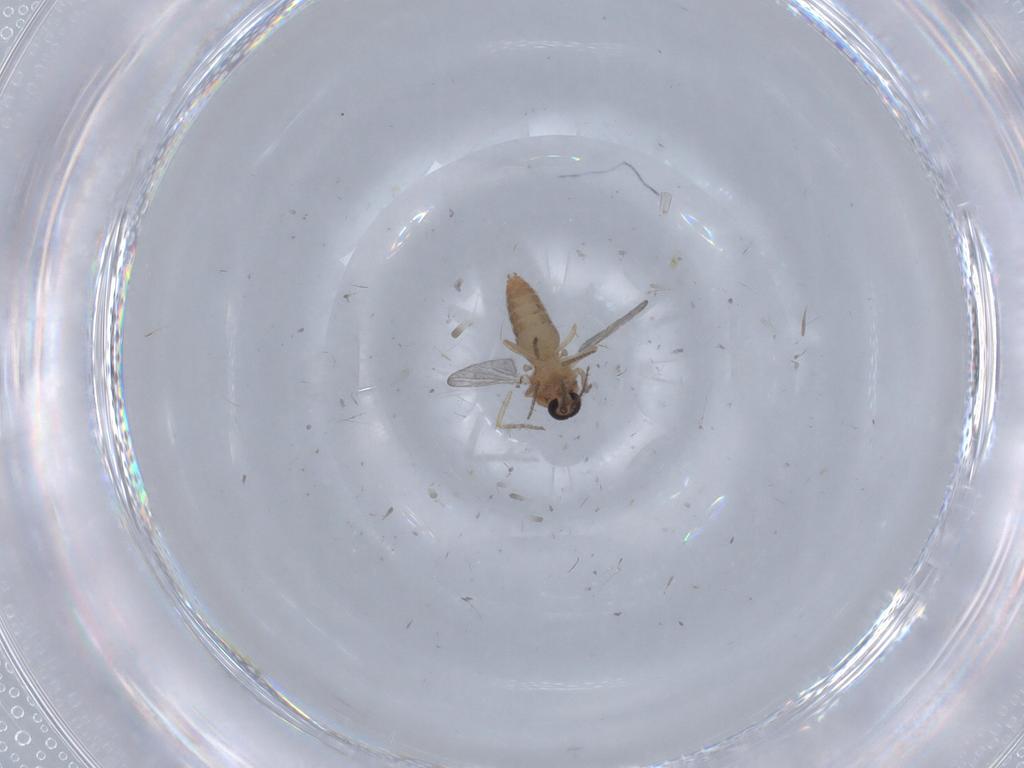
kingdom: Animalia
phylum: Arthropoda
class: Insecta
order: Diptera
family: Ceratopogonidae
